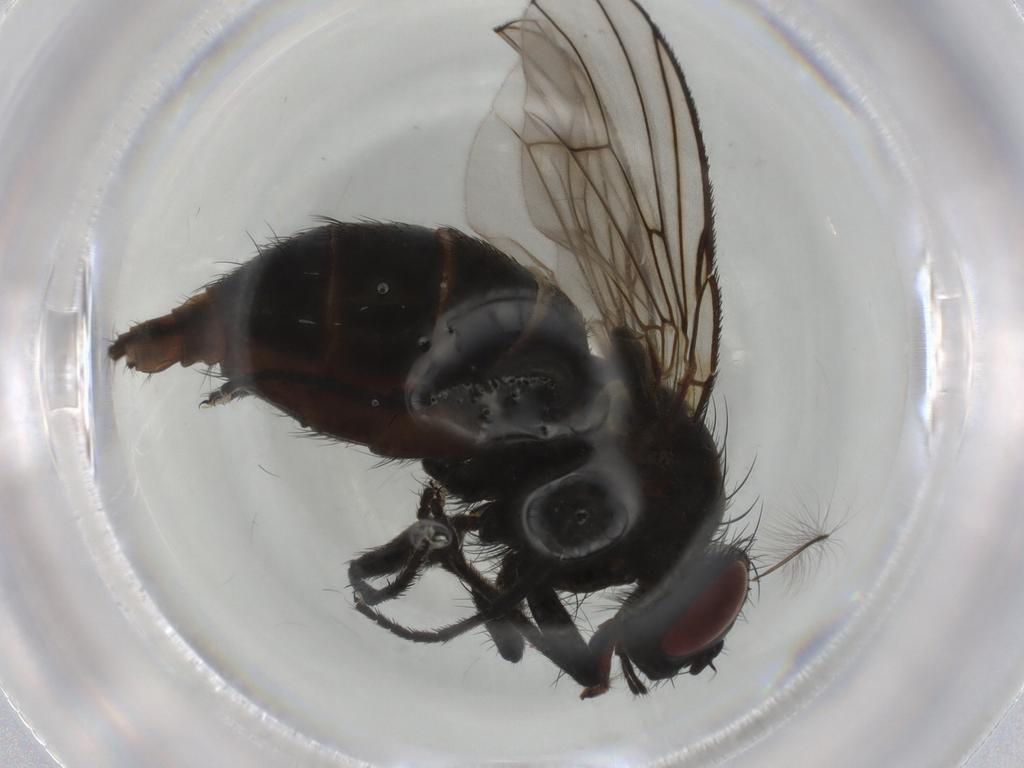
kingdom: Animalia
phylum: Arthropoda
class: Insecta
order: Diptera
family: Muscidae
